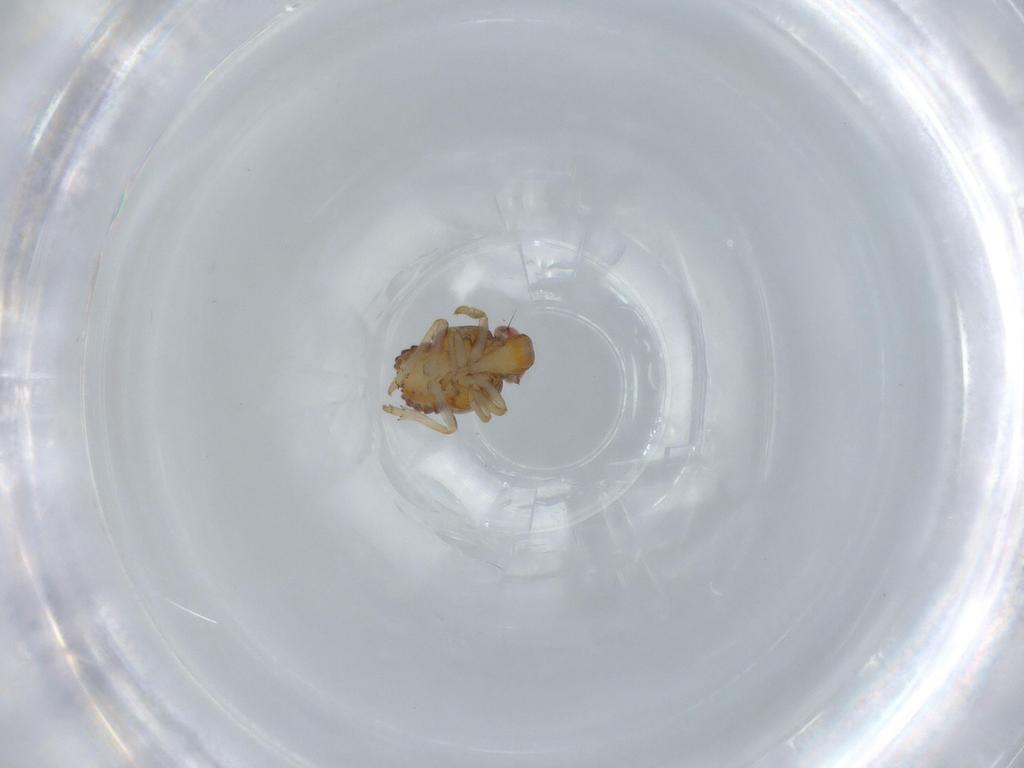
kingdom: Animalia
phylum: Arthropoda
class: Insecta
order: Hemiptera
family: Issidae
